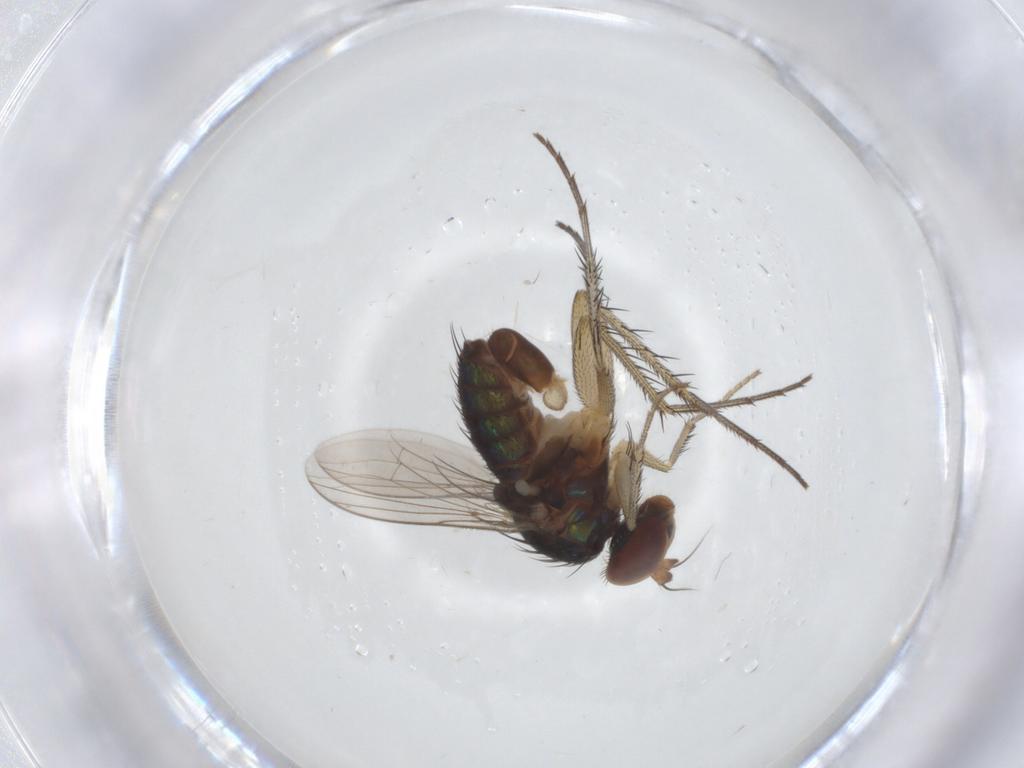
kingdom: Animalia
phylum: Arthropoda
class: Insecta
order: Diptera
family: Dolichopodidae
